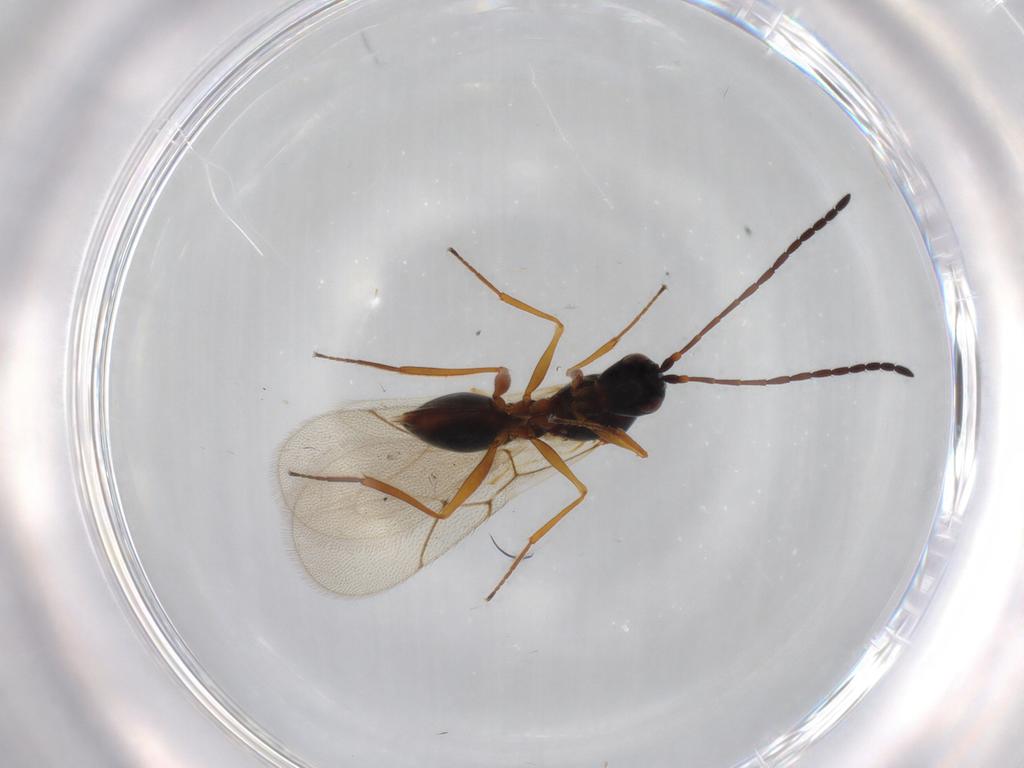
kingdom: Animalia
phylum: Arthropoda
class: Insecta
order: Hymenoptera
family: Figitidae
